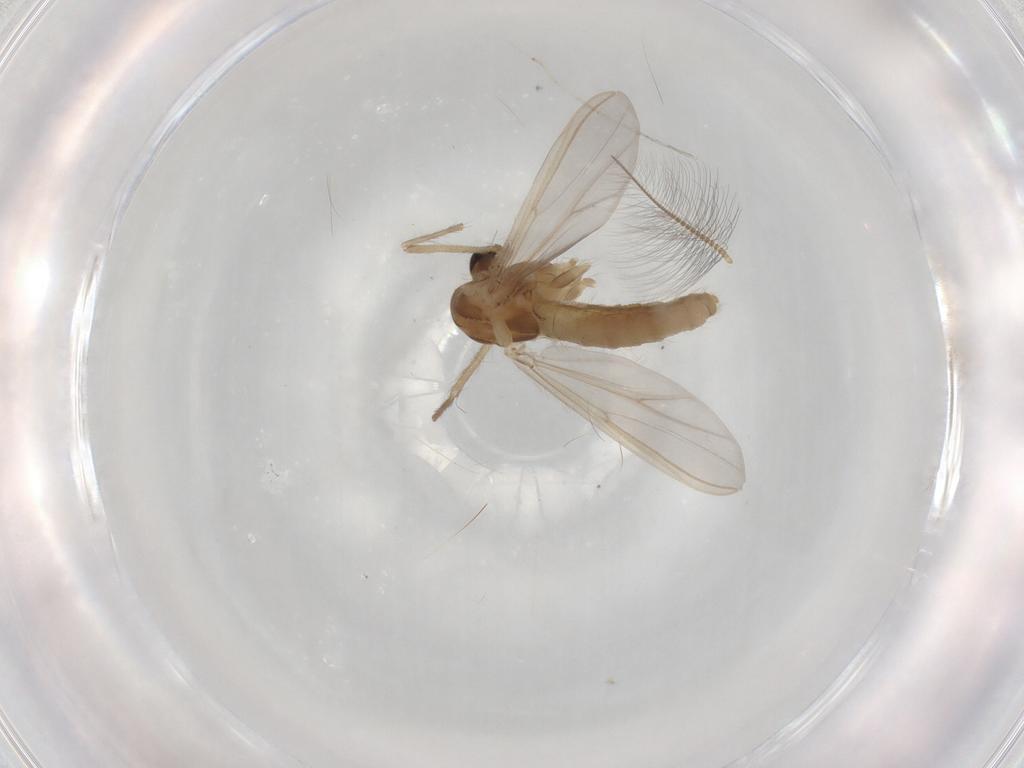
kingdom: Animalia
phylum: Arthropoda
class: Insecta
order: Diptera
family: Chironomidae
